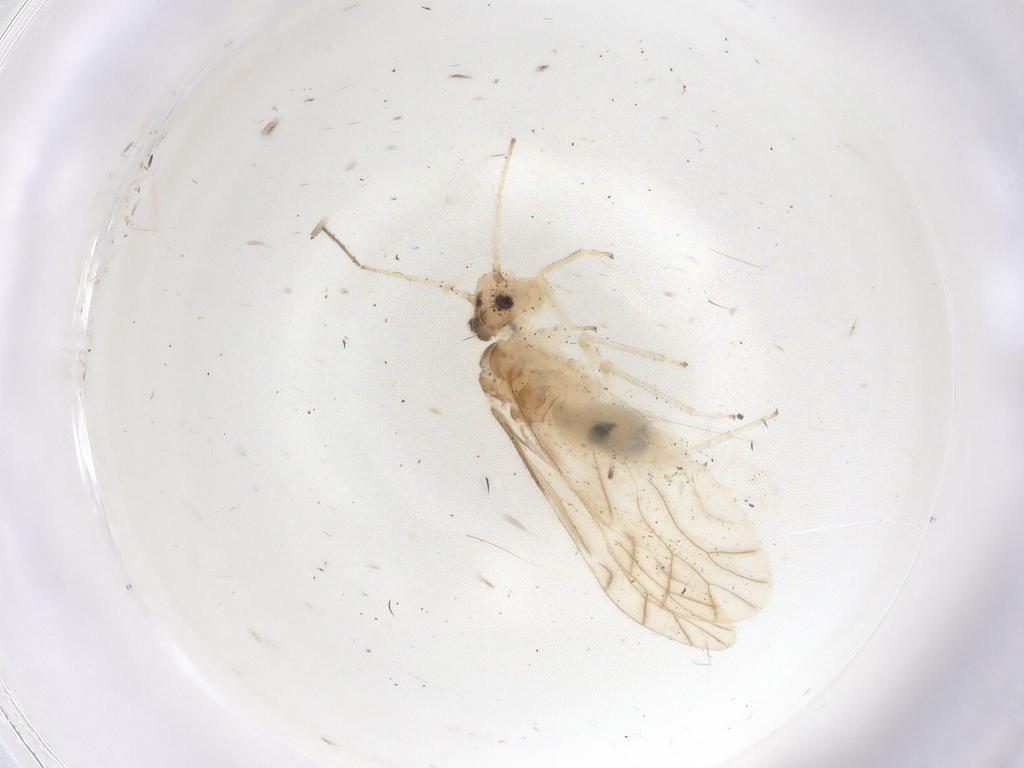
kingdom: Animalia
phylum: Arthropoda
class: Insecta
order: Psocodea
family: Caeciliusidae
